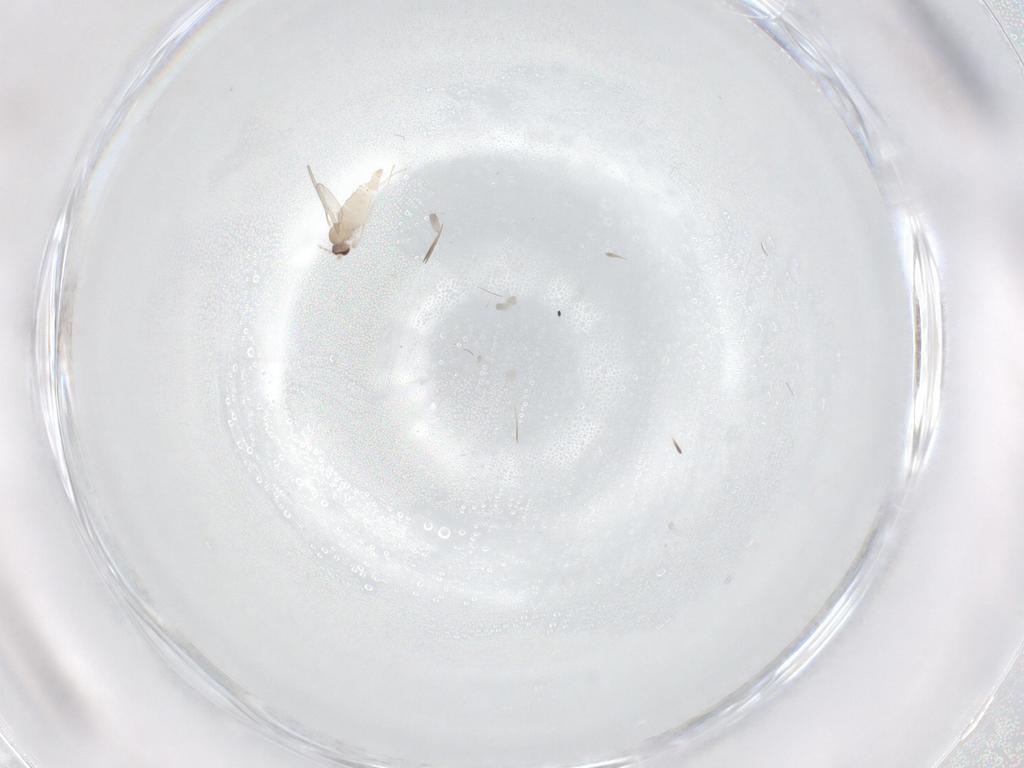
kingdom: Animalia
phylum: Arthropoda
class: Insecta
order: Diptera
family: Cecidomyiidae
